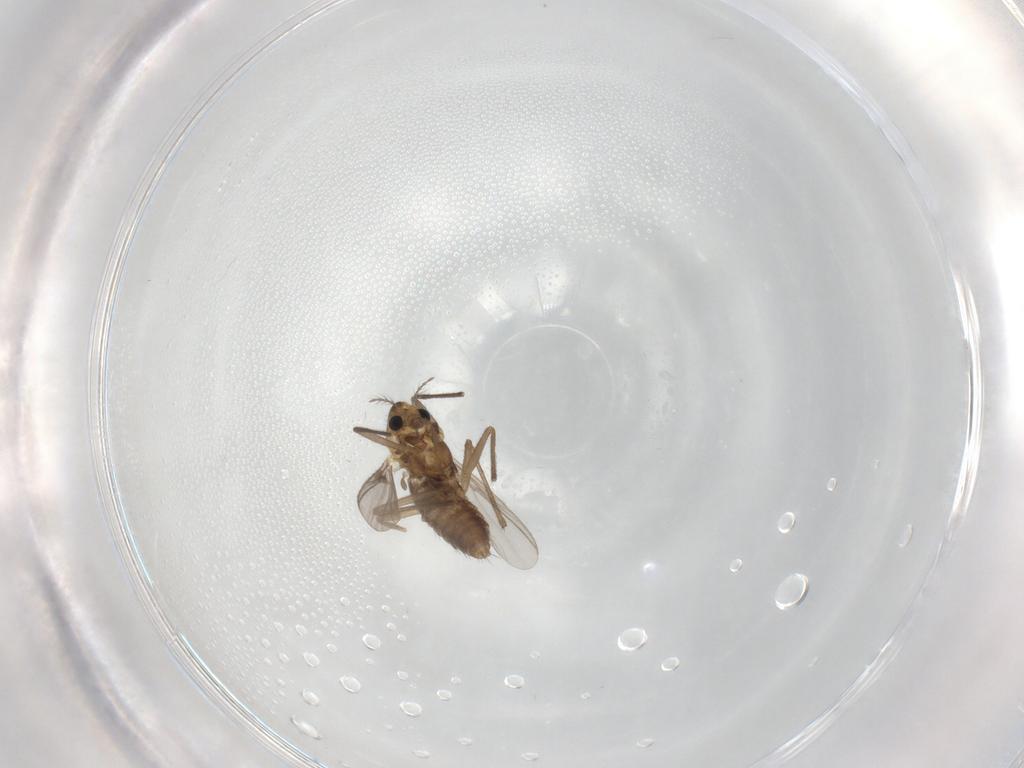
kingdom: Animalia
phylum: Arthropoda
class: Insecta
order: Diptera
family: Chironomidae
